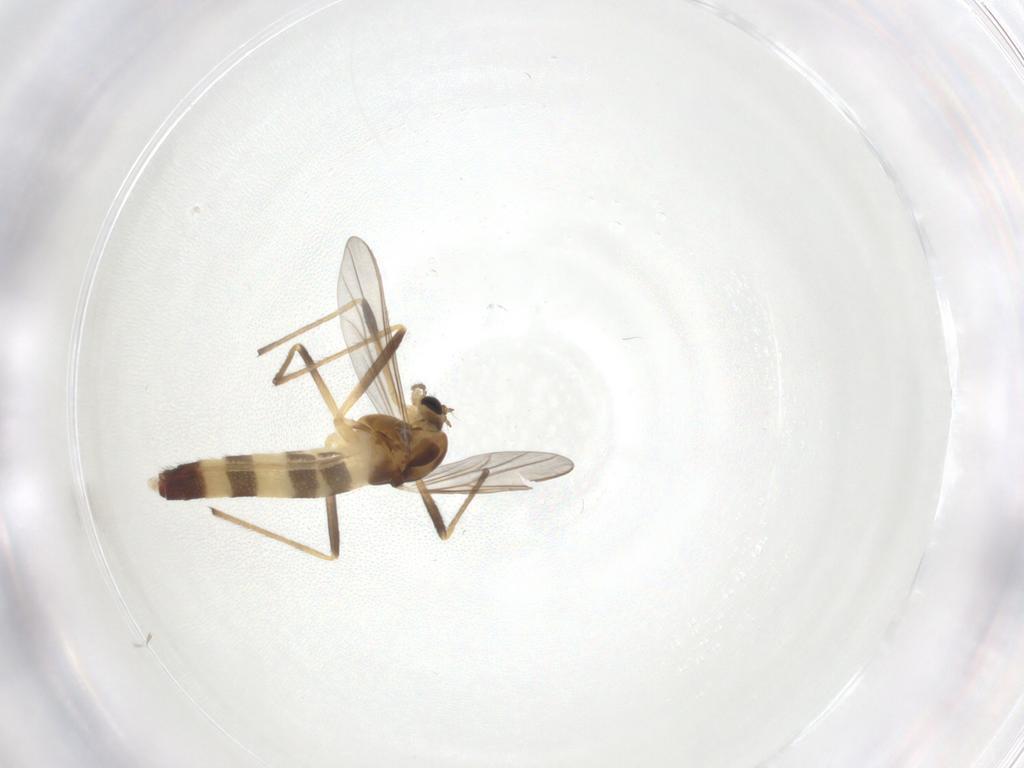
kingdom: Animalia
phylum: Arthropoda
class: Insecta
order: Diptera
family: Chironomidae
